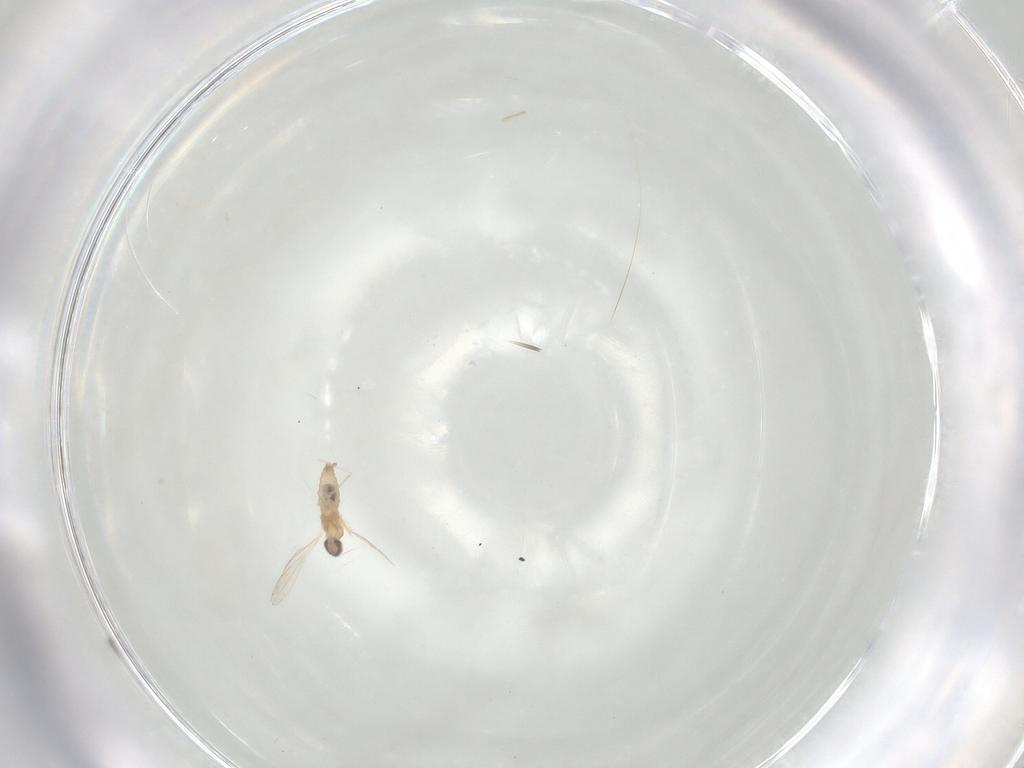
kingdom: Animalia
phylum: Arthropoda
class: Insecta
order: Diptera
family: Cecidomyiidae
